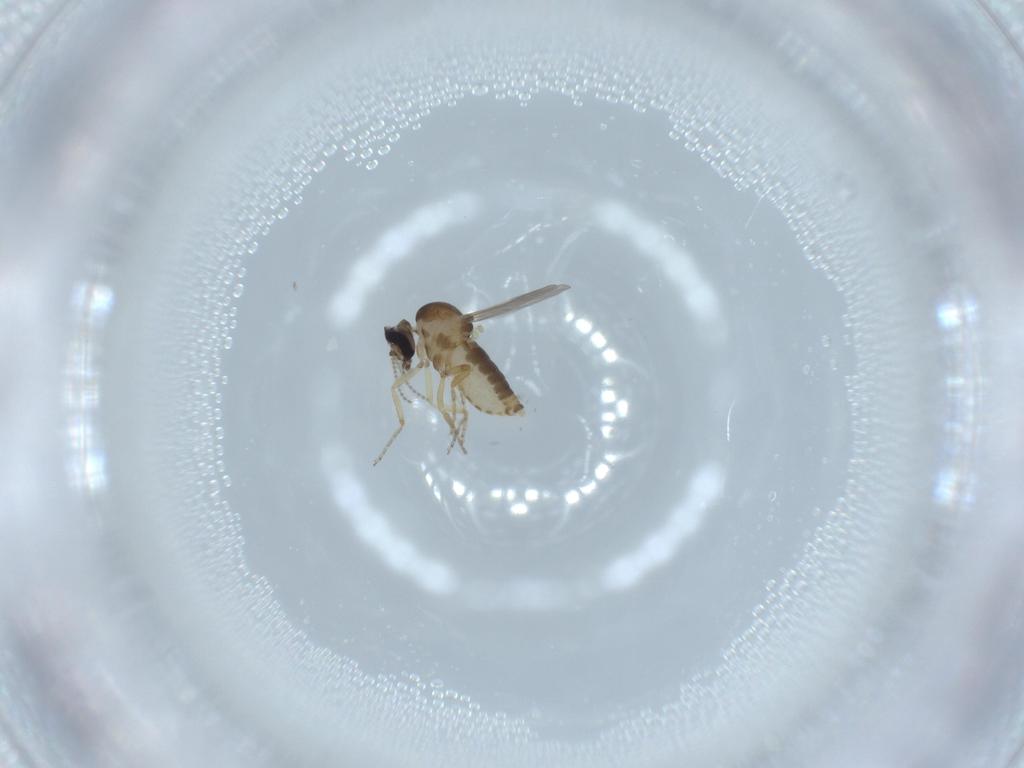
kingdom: Animalia
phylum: Arthropoda
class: Insecta
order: Diptera
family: Ceratopogonidae
